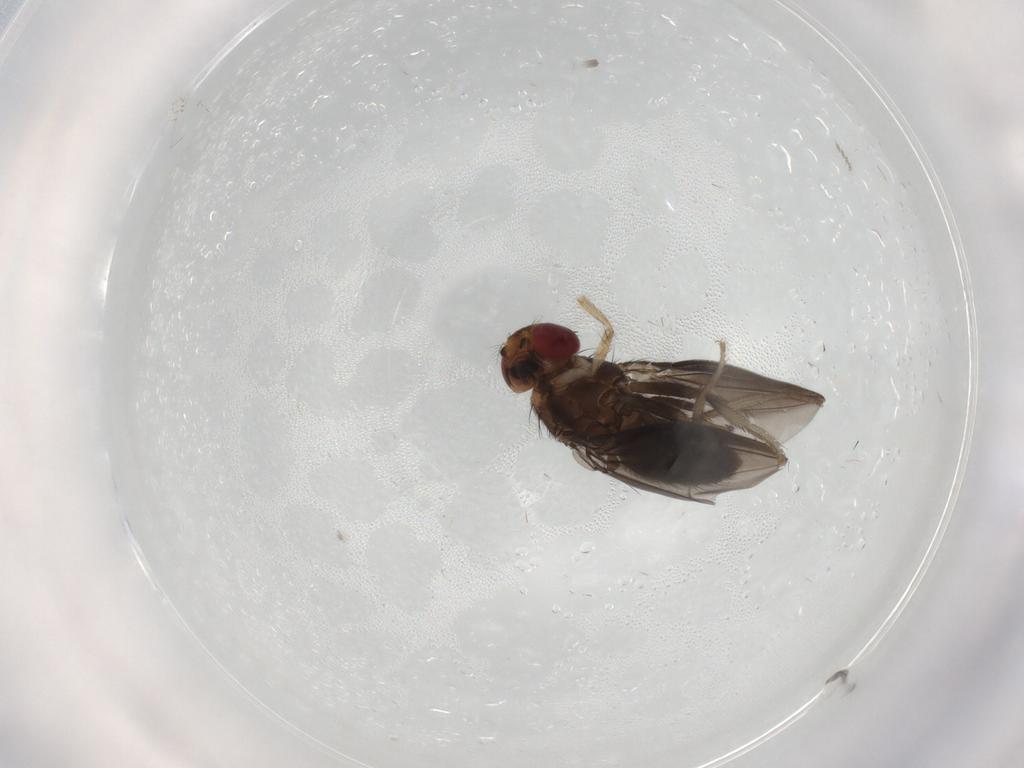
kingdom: Animalia
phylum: Arthropoda
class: Insecta
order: Diptera
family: Drosophilidae
